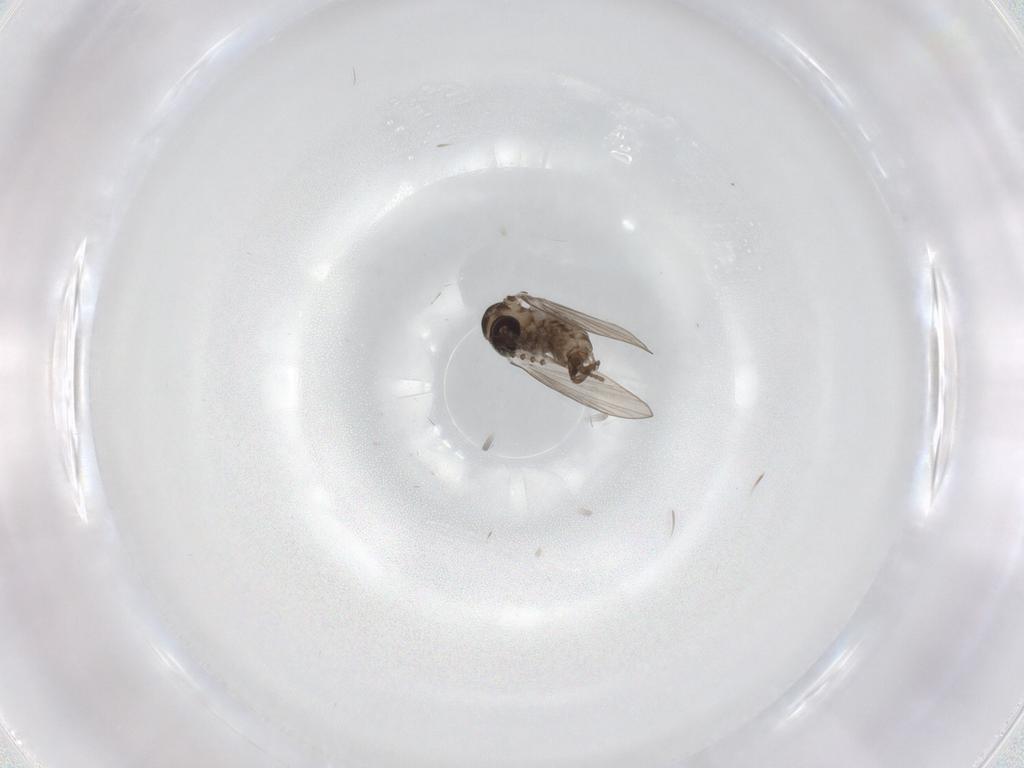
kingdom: Animalia
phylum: Arthropoda
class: Insecta
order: Diptera
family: Psychodidae
